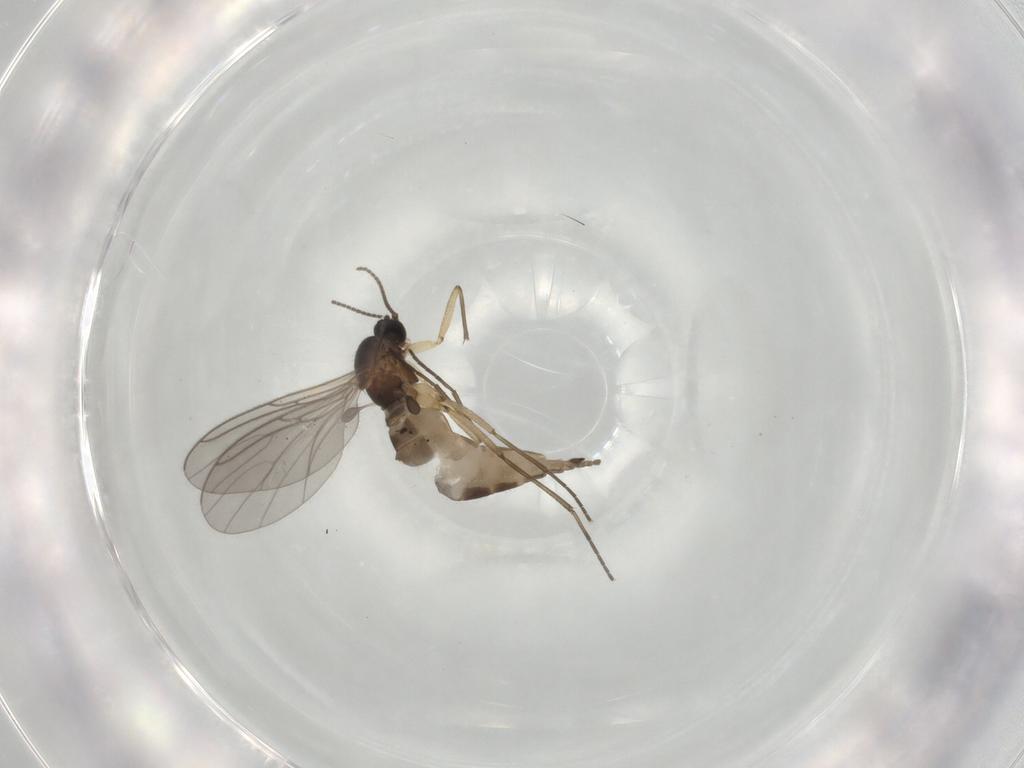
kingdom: Animalia
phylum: Arthropoda
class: Insecta
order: Diptera
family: Sciaridae
